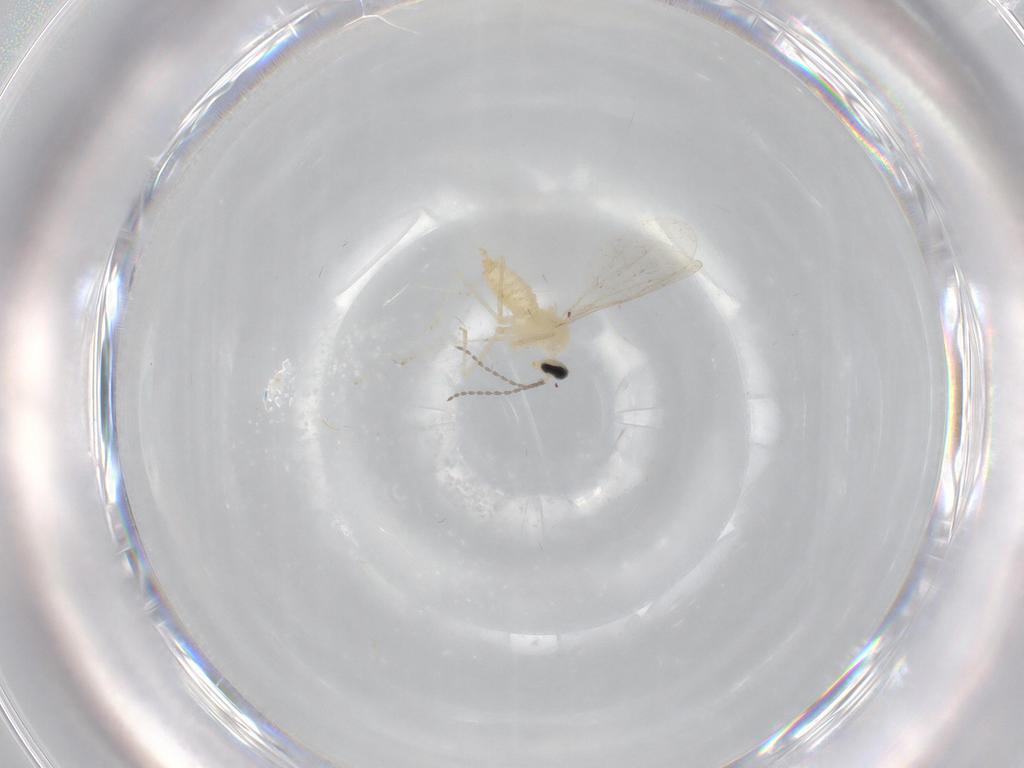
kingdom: Animalia
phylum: Arthropoda
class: Insecta
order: Diptera
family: Cecidomyiidae
